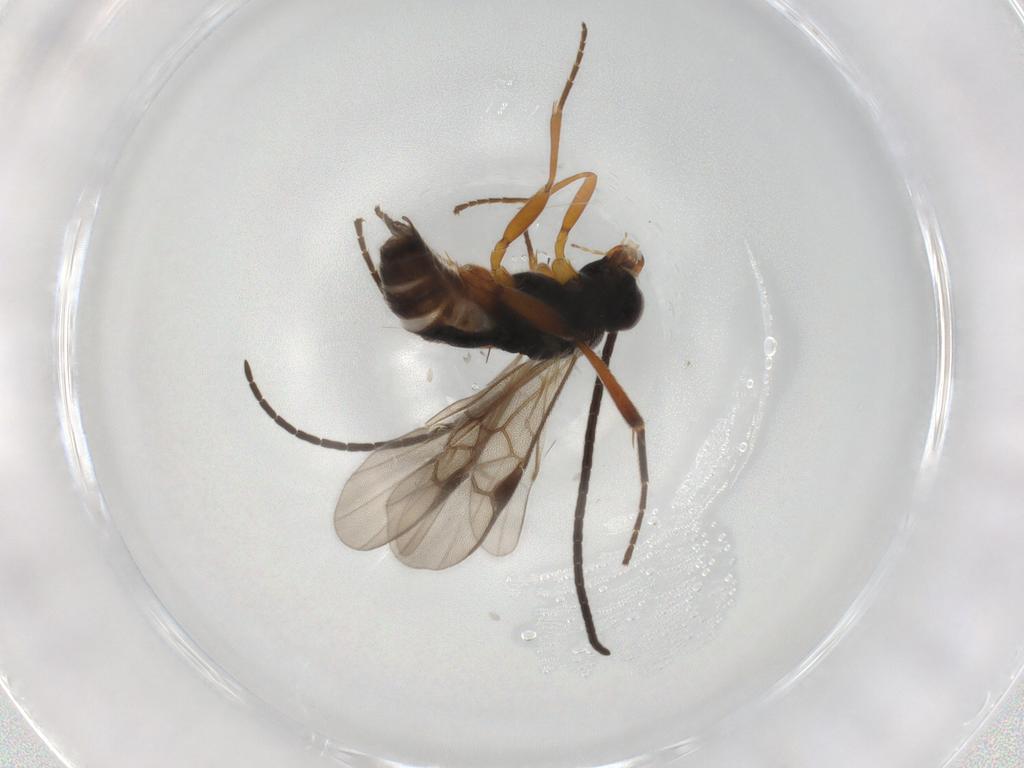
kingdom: Animalia
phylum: Arthropoda
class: Insecta
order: Hymenoptera
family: Braconidae
